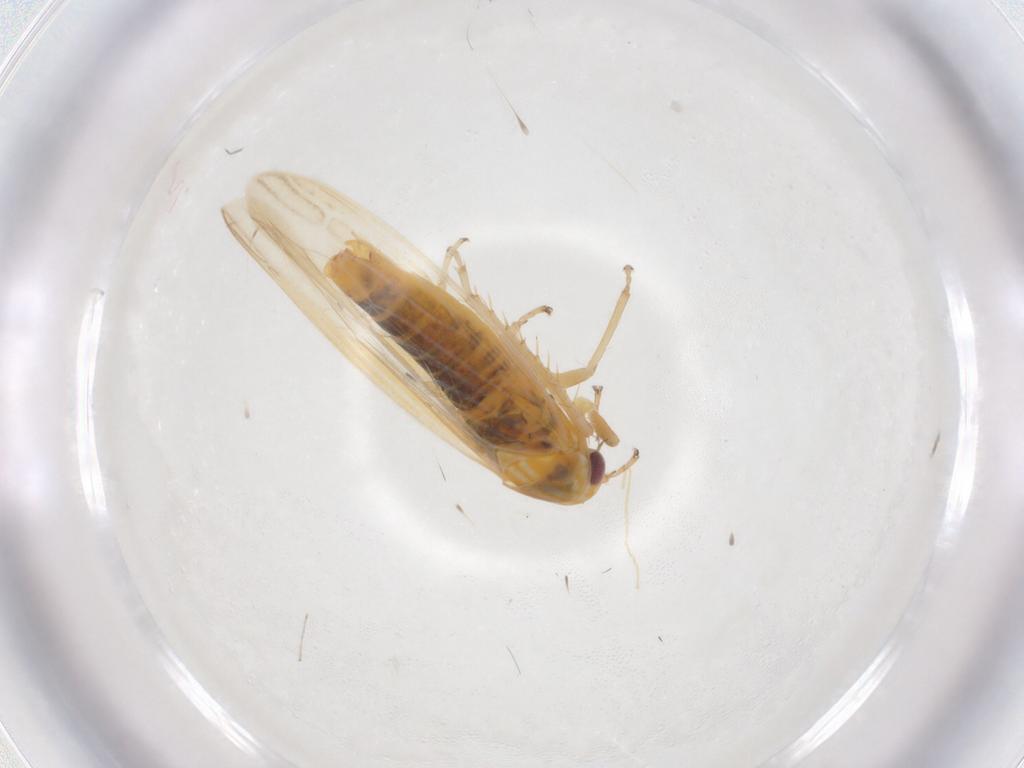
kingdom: Animalia
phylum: Arthropoda
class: Insecta
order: Hemiptera
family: Cicadellidae
